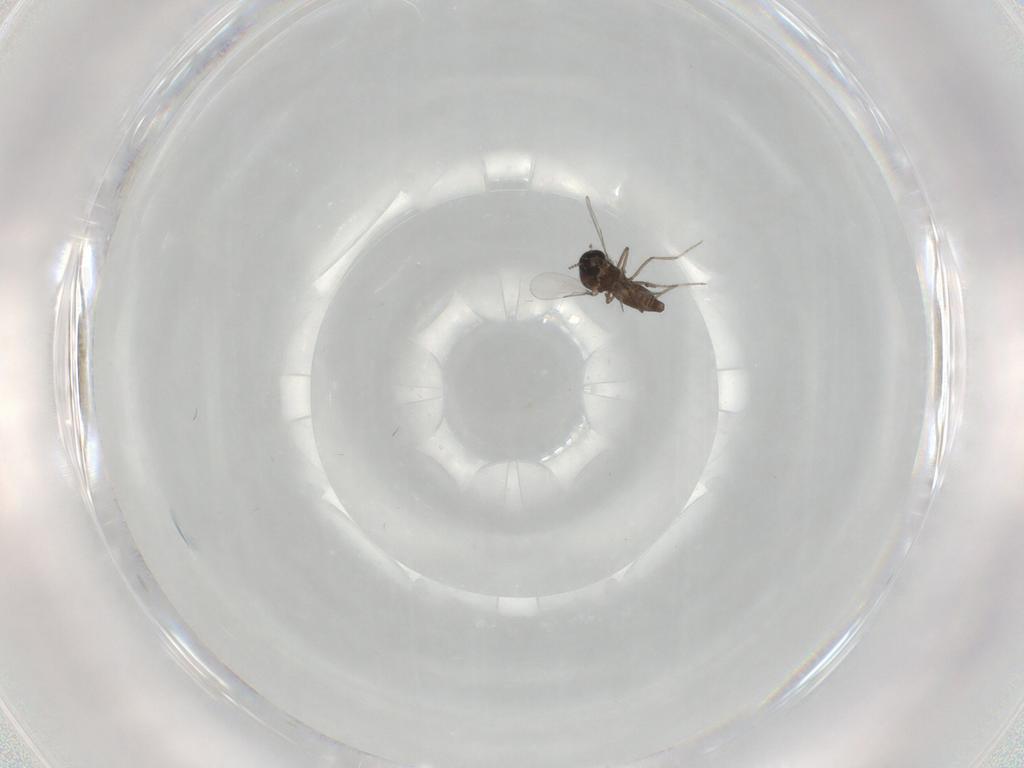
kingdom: Animalia
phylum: Arthropoda
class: Insecta
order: Diptera
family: Ceratopogonidae
